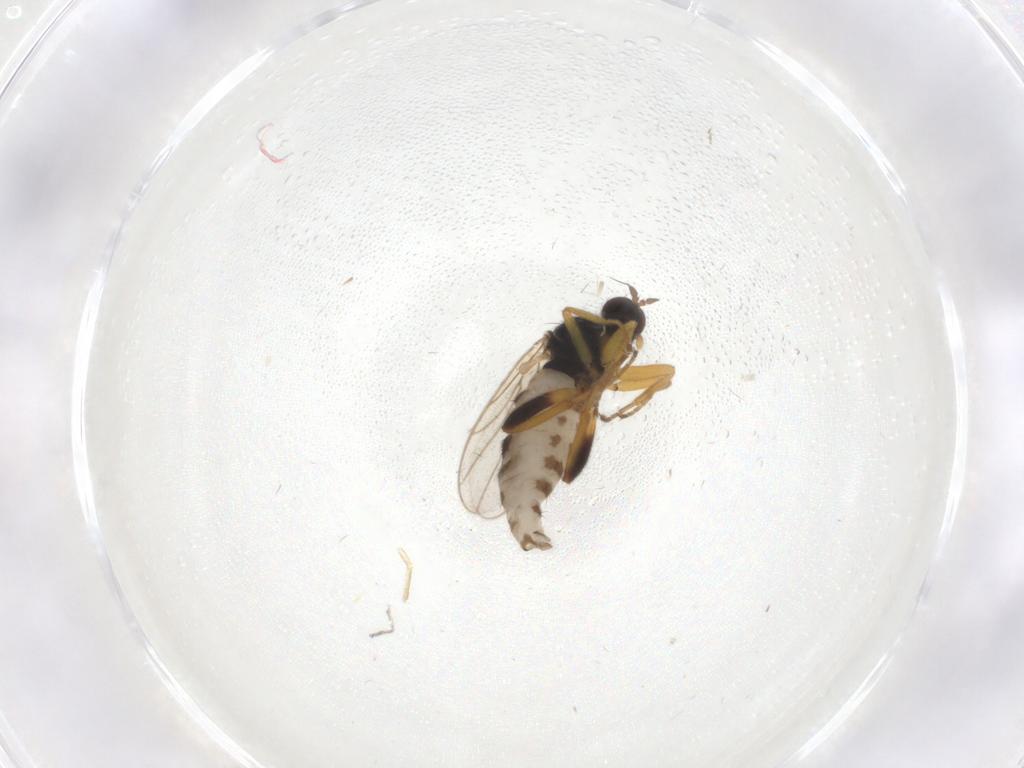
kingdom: Animalia
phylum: Arthropoda
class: Insecta
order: Diptera
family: Hybotidae
